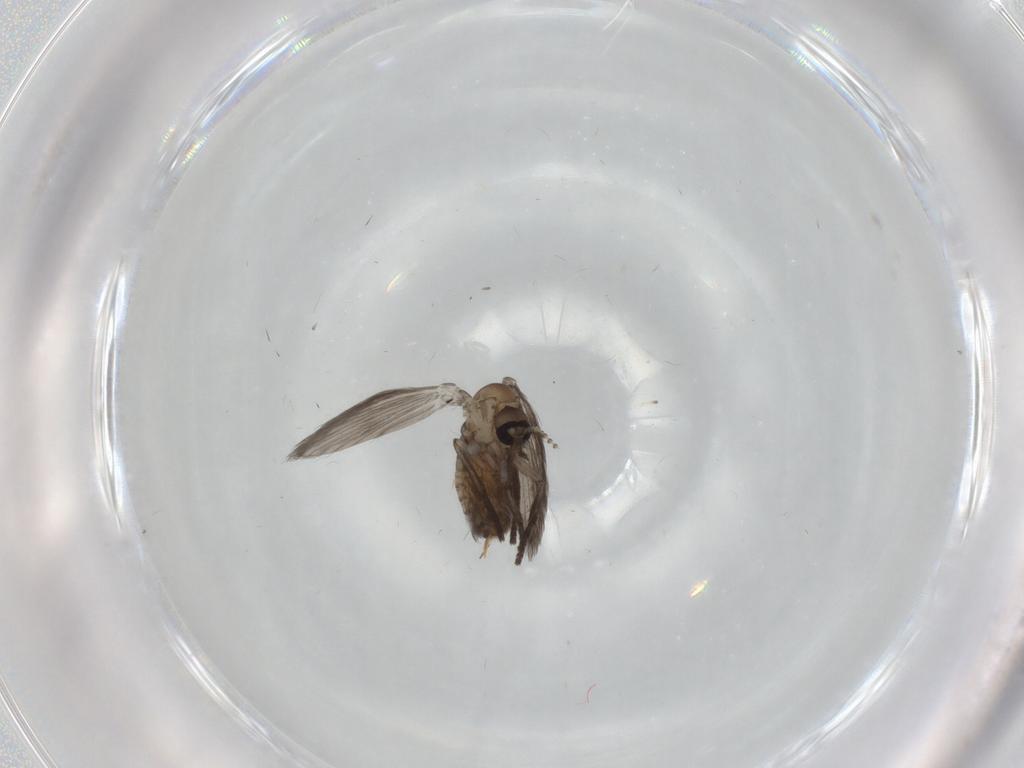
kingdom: Animalia
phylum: Arthropoda
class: Insecta
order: Diptera
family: Psychodidae
